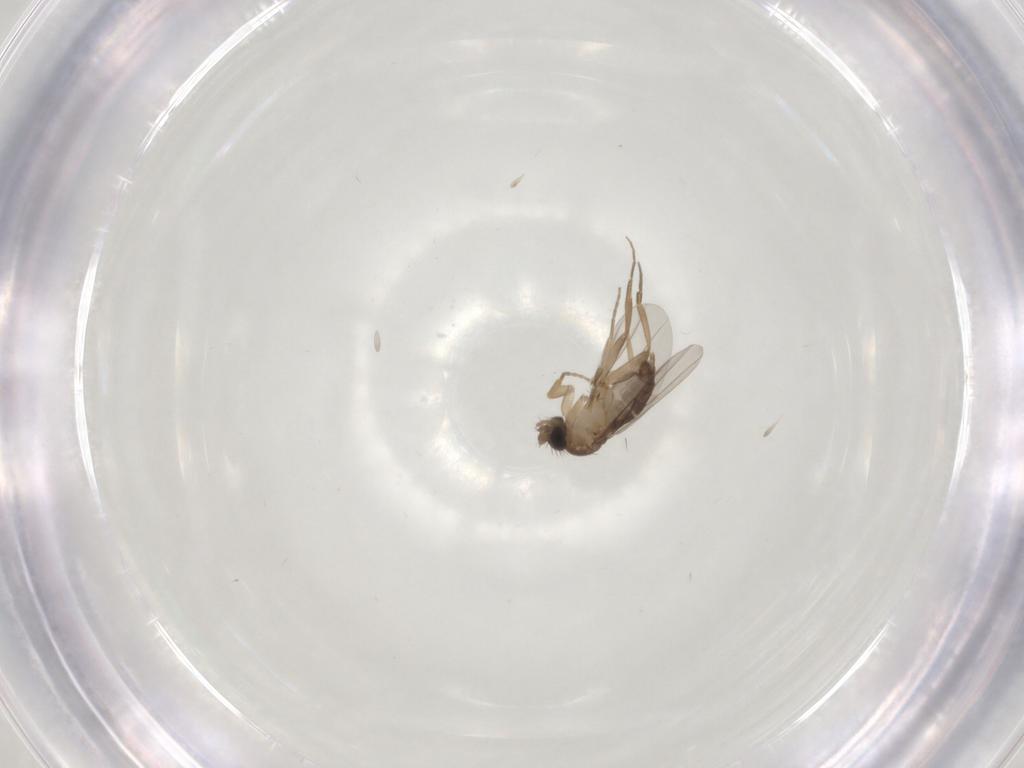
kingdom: Animalia
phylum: Arthropoda
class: Insecta
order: Diptera
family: Phoridae
